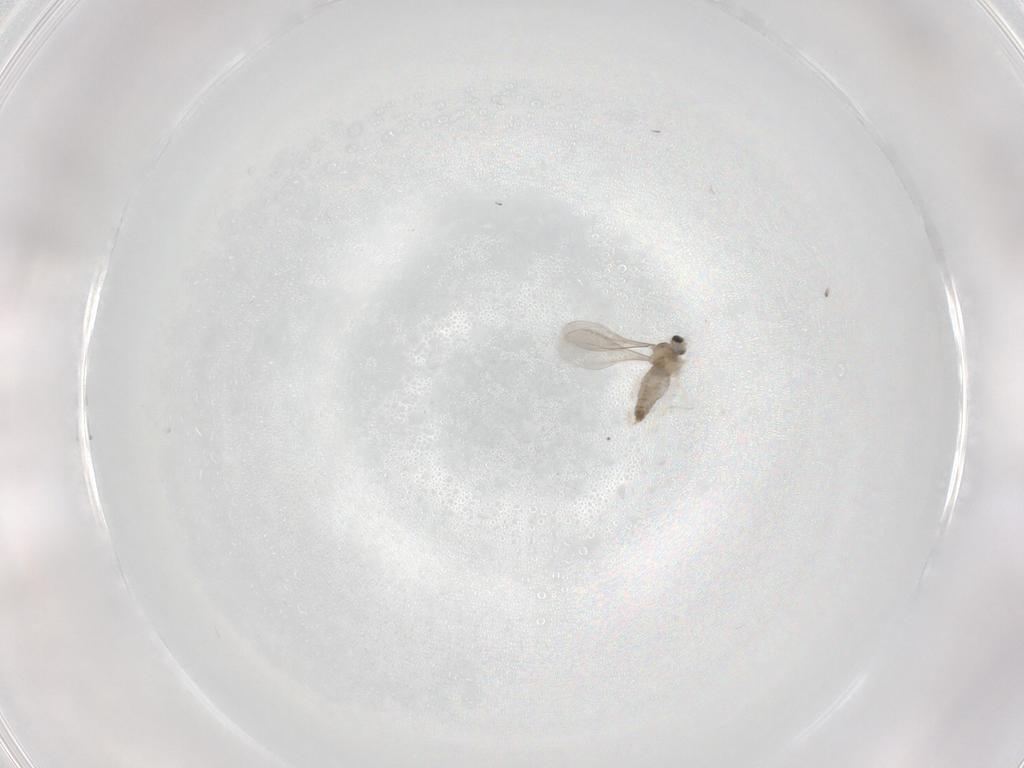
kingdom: Animalia
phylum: Arthropoda
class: Insecta
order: Diptera
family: Cecidomyiidae
